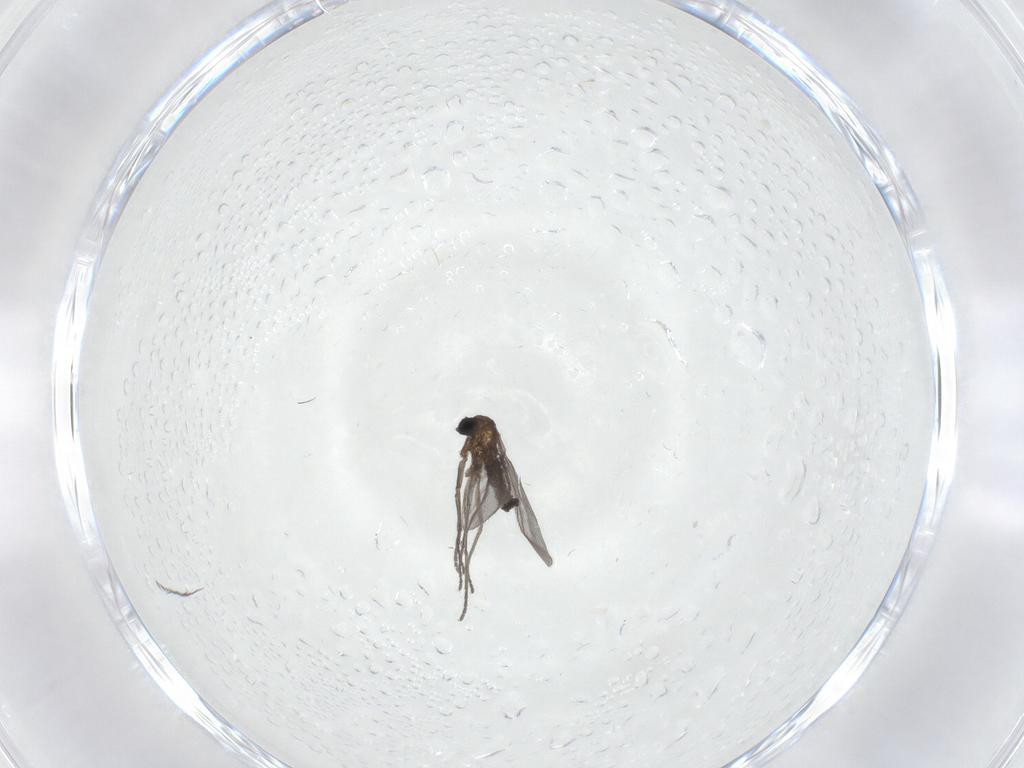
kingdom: Animalia
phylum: Arthropoda
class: Insecta
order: Diptera
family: Sciaridae
